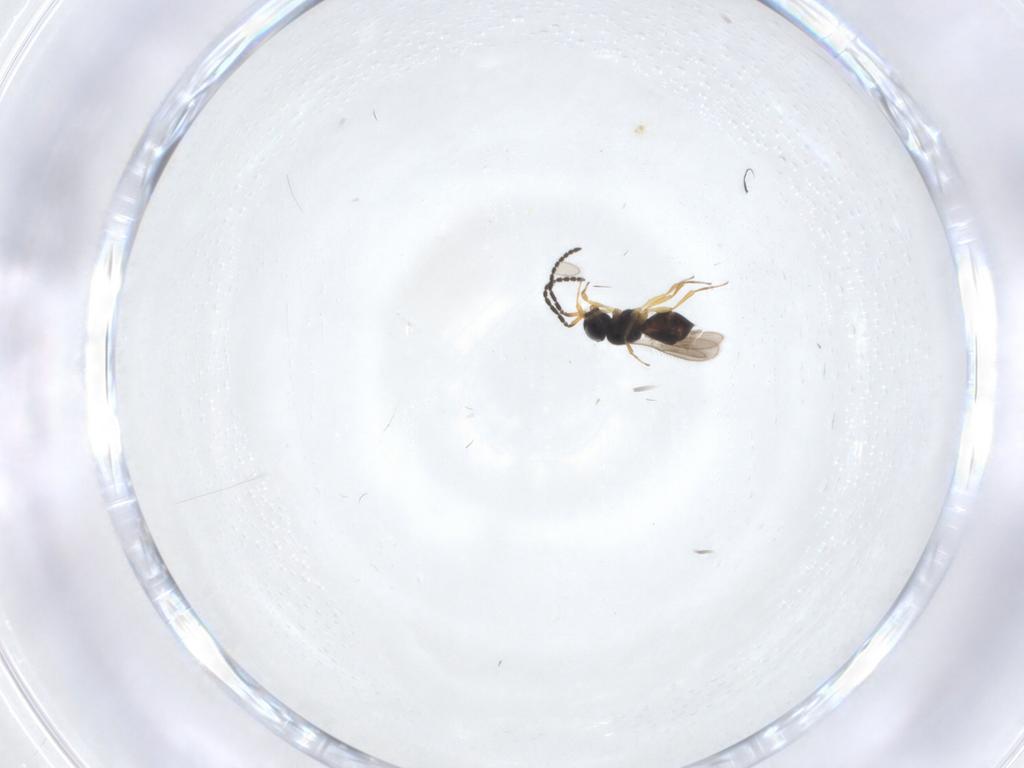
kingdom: Animalia
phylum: Arthropoda
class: Insecta
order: Hymenoptera
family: Scelionidae
